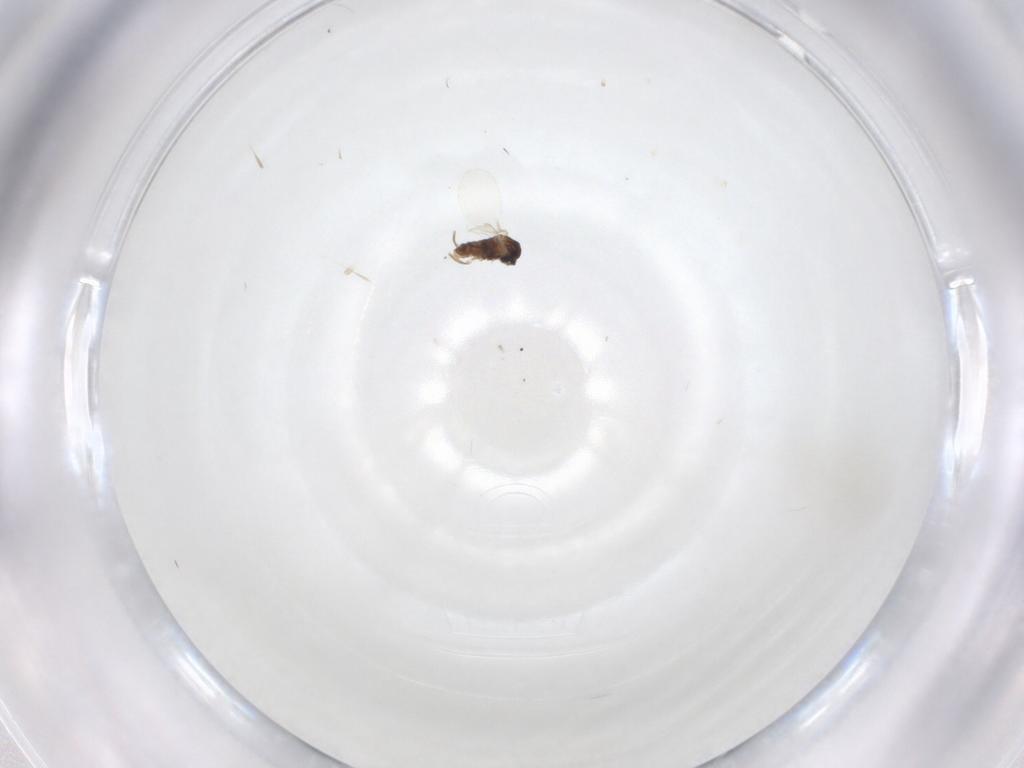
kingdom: Animalia
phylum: Arthropoda
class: Insecta
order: Diptera
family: Cecidomyiidae
